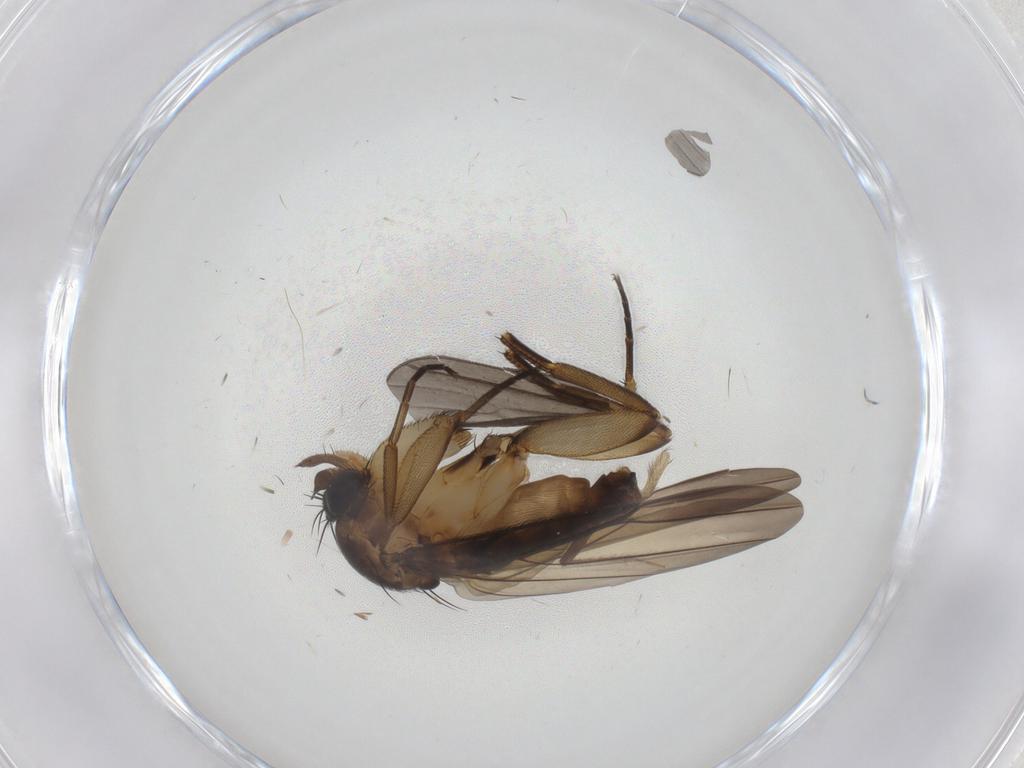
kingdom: Animalia
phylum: Arthropoda
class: Insecta
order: Diptera
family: Phoridae
